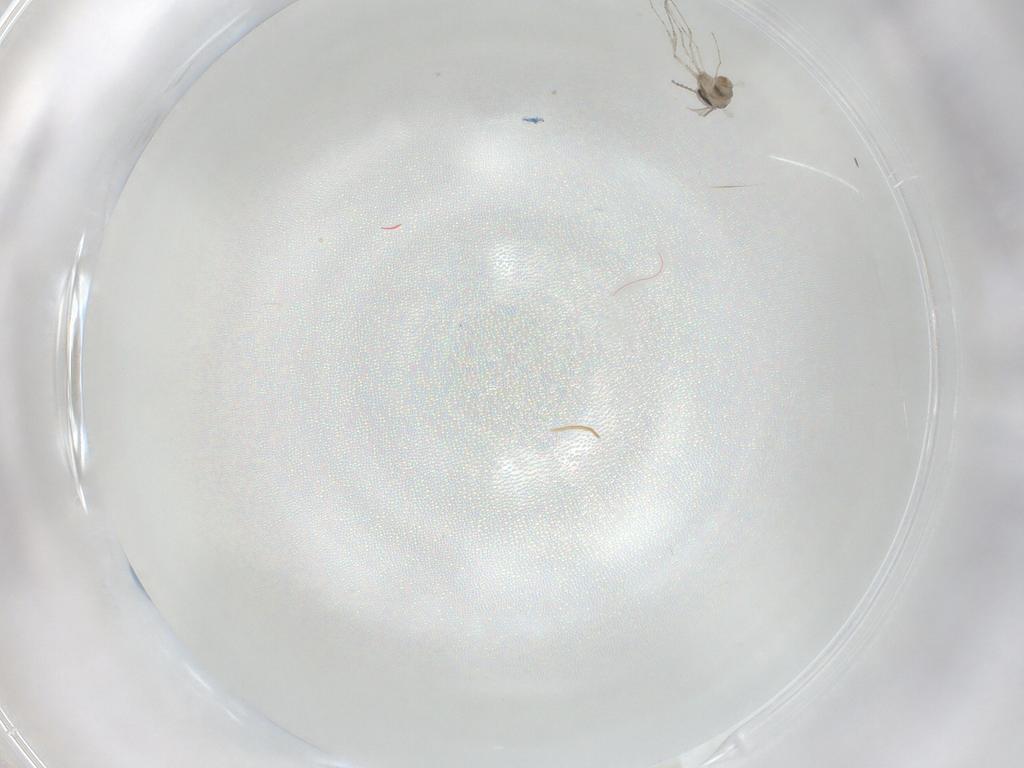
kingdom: Animalia
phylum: Arthropoda
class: Insecta
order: Diptera
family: Cecidomyiidae
